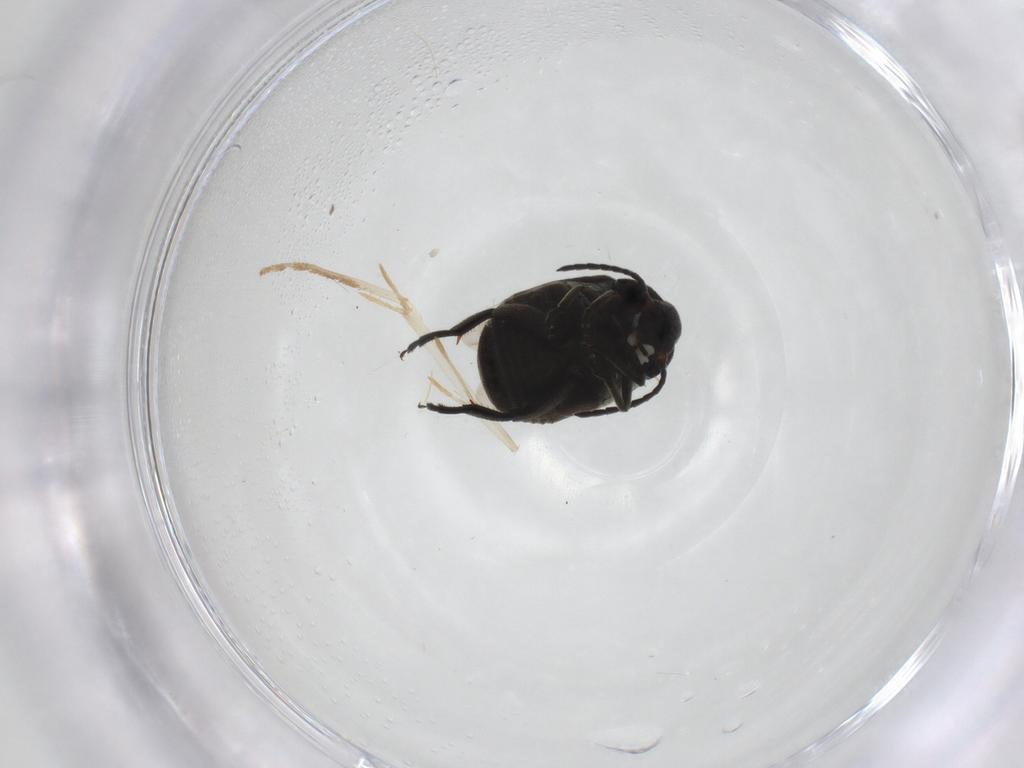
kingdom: Animalia
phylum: Arthropoda
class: Insecta
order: Coleoptera
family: Chrysomelidae
